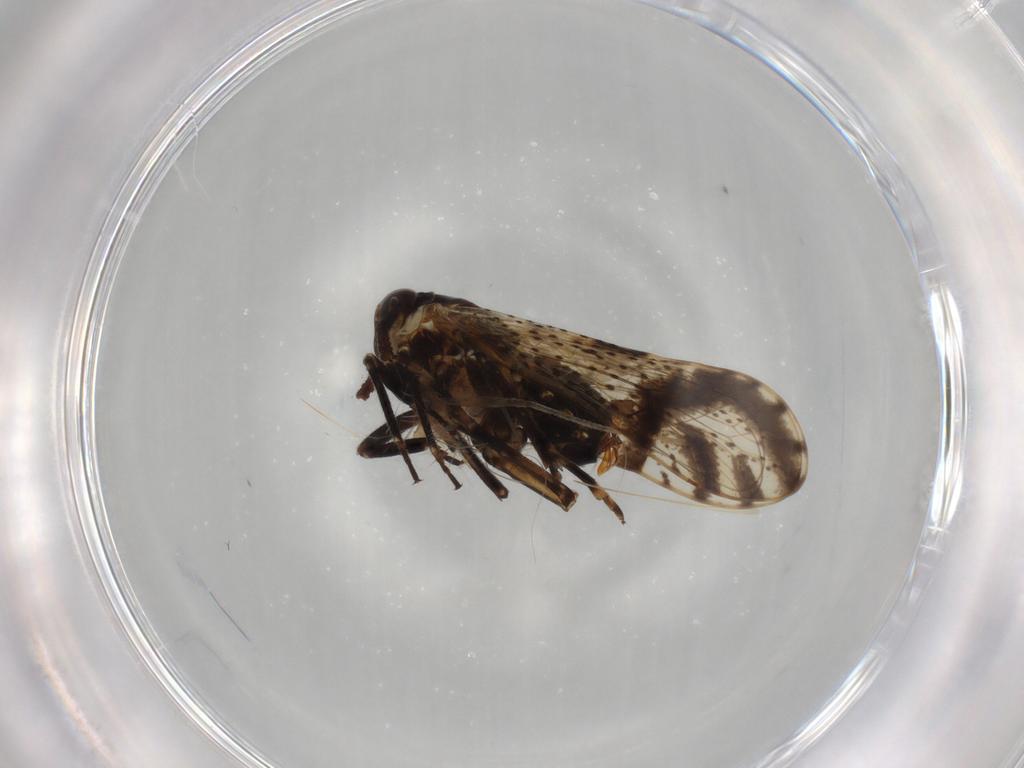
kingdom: Animalia
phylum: Arthropoda
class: Insecta
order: Hemiptera
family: Delphacidae
